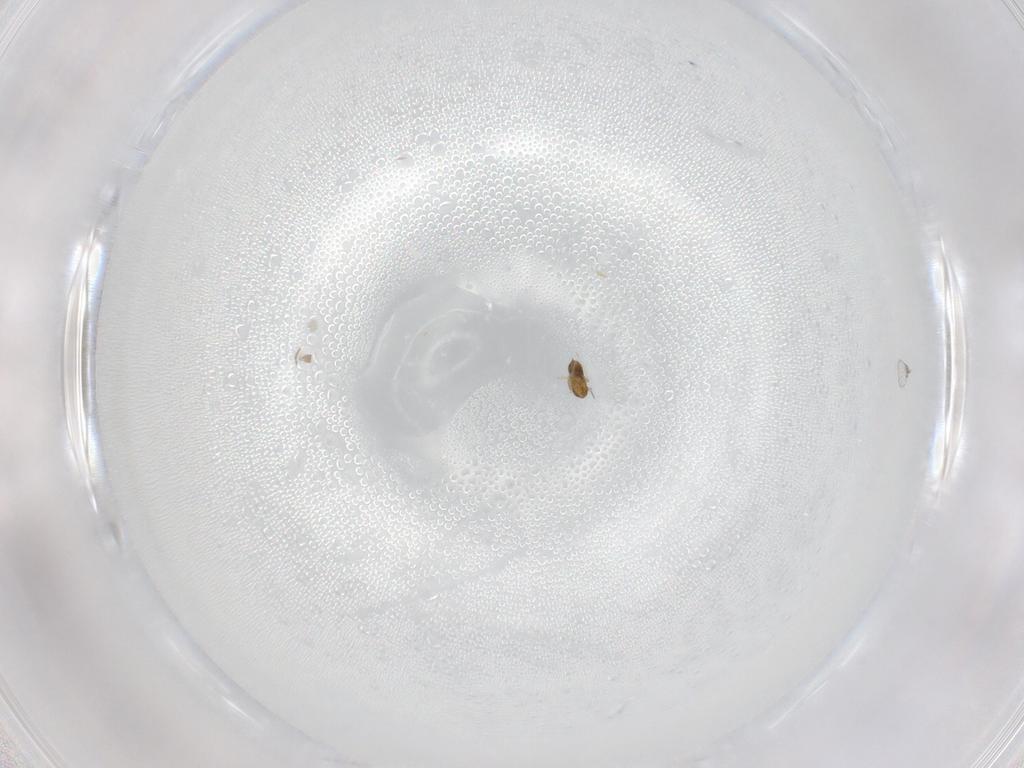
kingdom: Animalia
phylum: Arthropoda
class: Insecta
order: Hymenoptera
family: Trichogrammatidae
